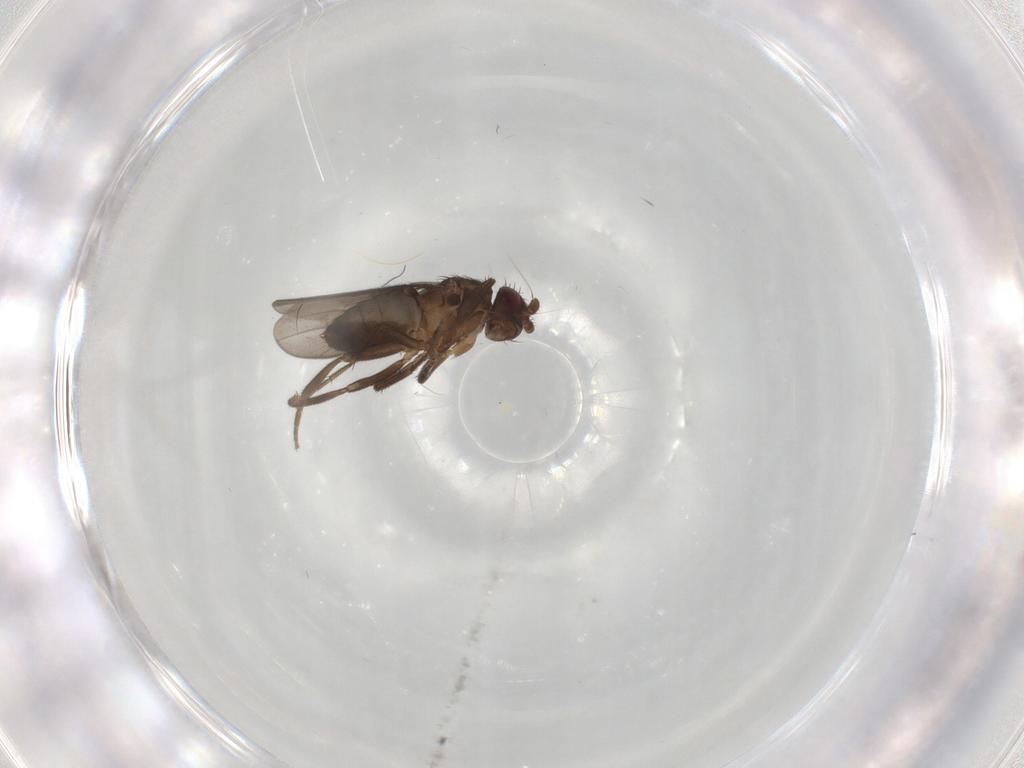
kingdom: Animalia
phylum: Arthropoda
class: Insecta
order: Diptera
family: Sphaeroceridae
